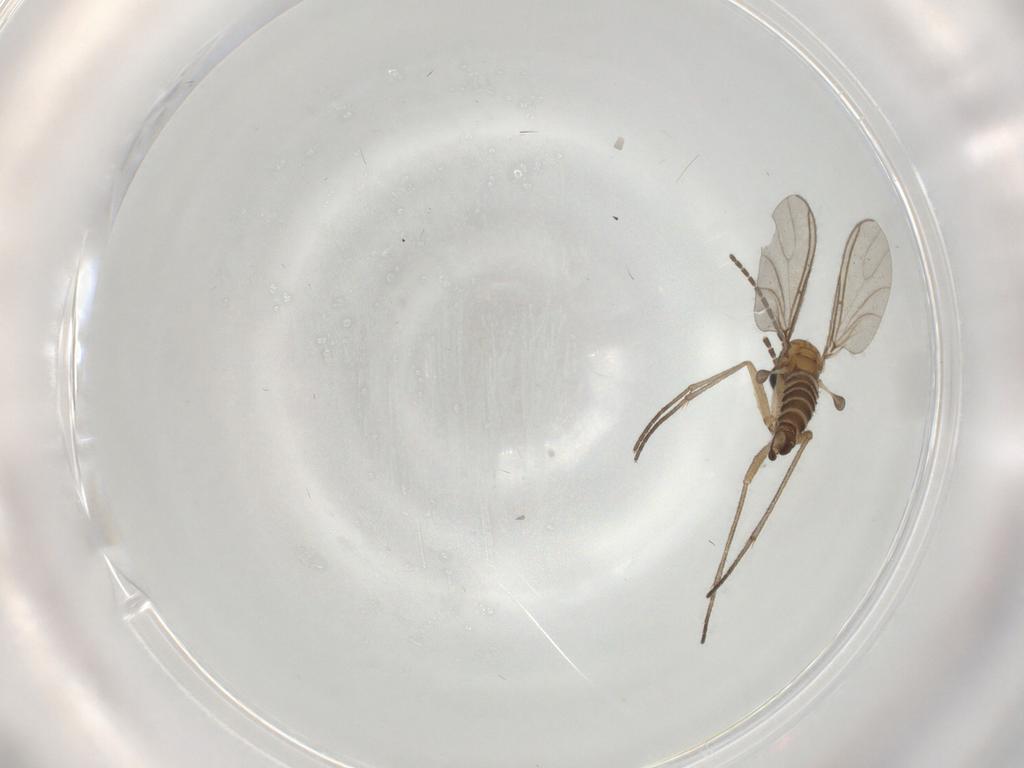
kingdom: Animalia
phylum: Arthropoda
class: Insecta
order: Diptera
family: Sciaridae
